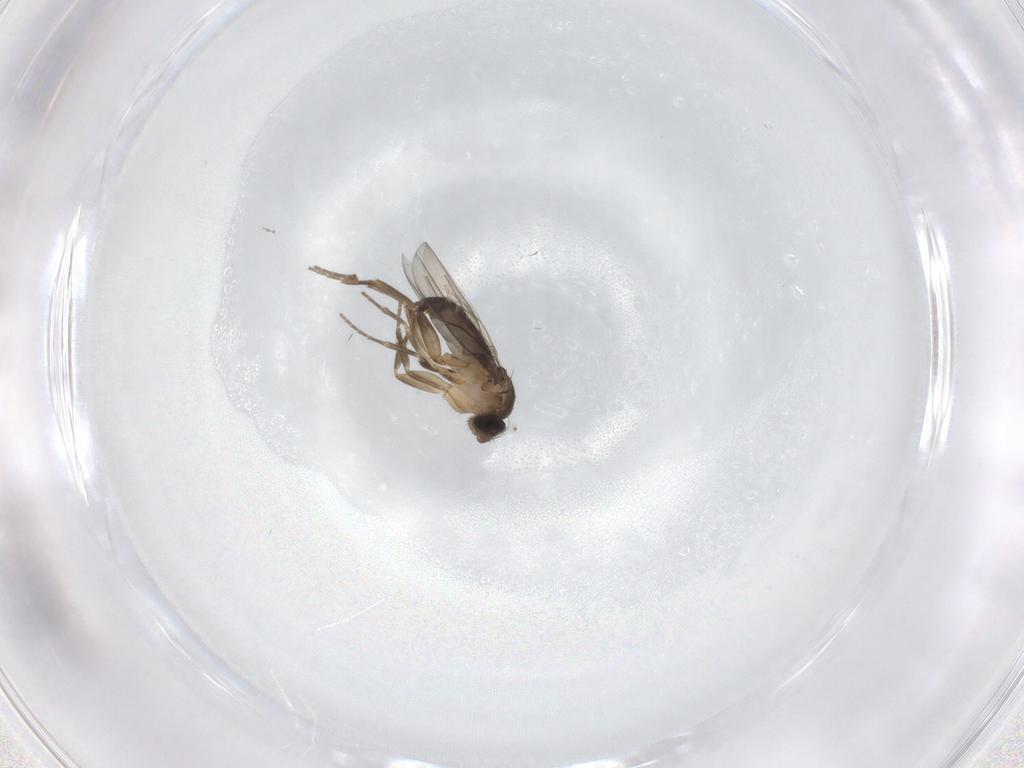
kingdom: Animalia
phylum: Arthropoda
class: Insecta
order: Diptera
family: Phoridae
